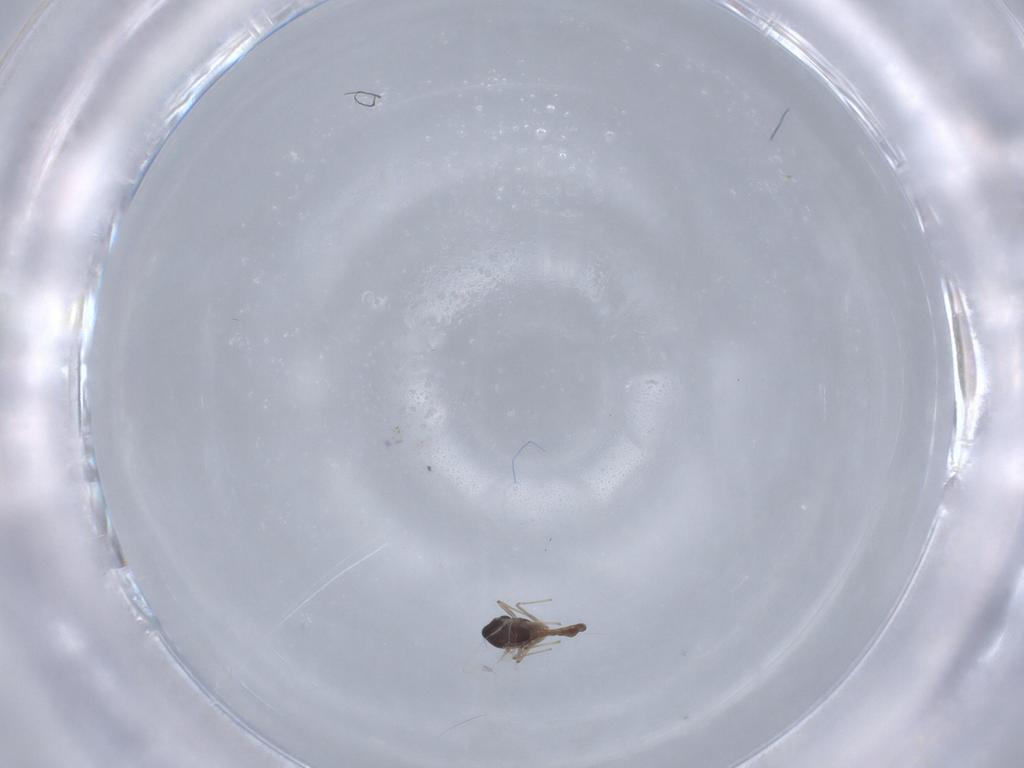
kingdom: Animalia
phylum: Arthropoda
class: Insecta
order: Diptera
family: Chironomidae
